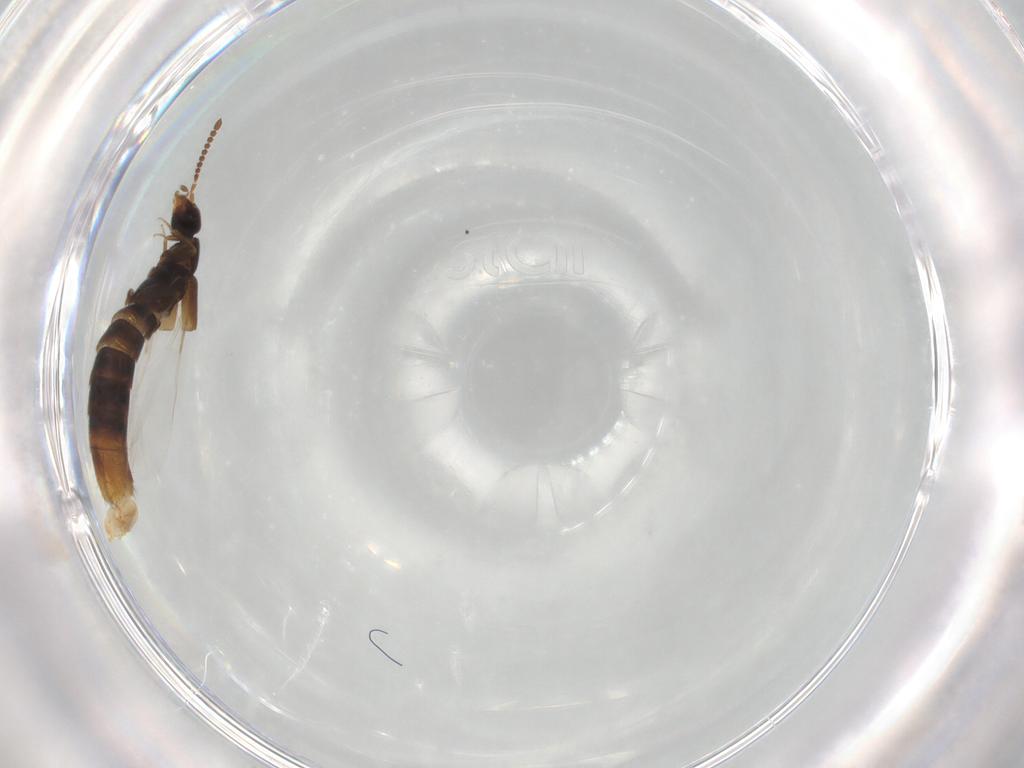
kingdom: Animalia
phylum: Arthropoda
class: Insecta
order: Coleoptera
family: Staphylinidae
